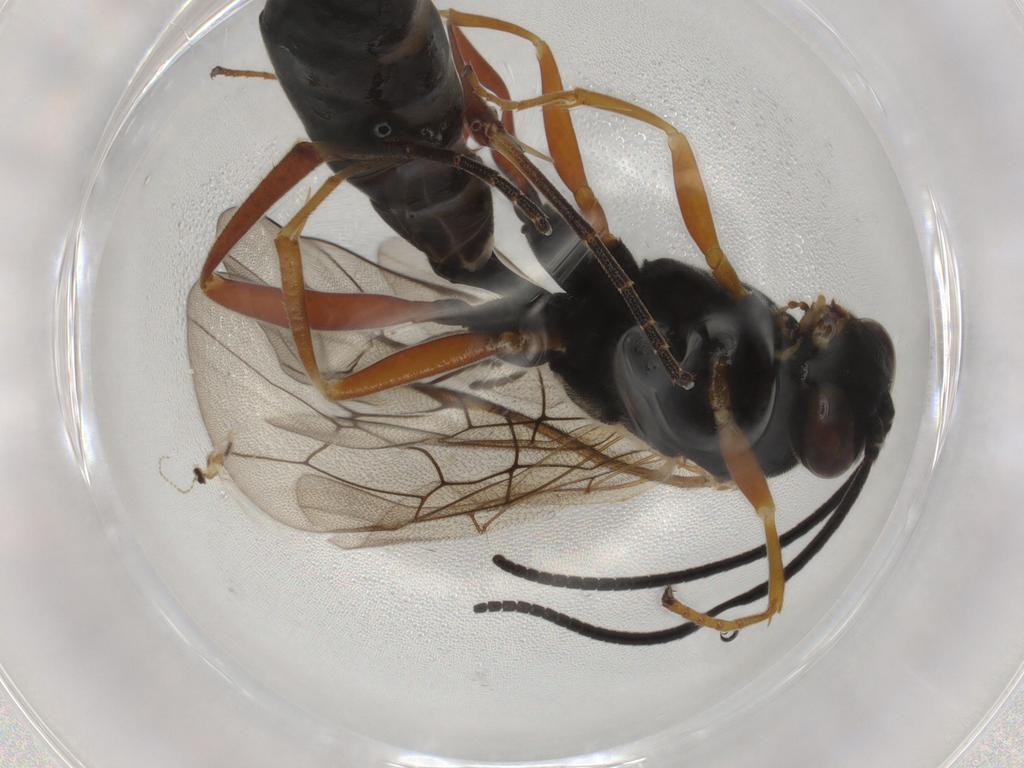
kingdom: Animalia
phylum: Arthropoda
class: Insecta
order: Hymenoptera
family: Ichneumonidae
